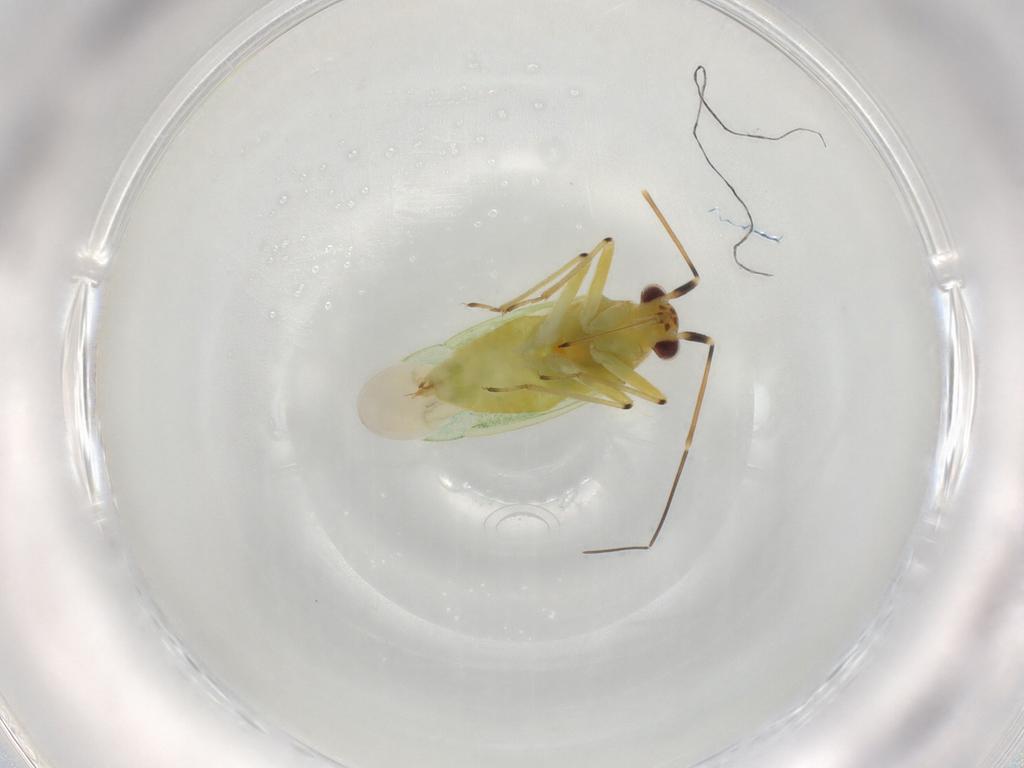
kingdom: Animalia
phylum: Arthropoda
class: Insecta
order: Hemiptera
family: Miridae
